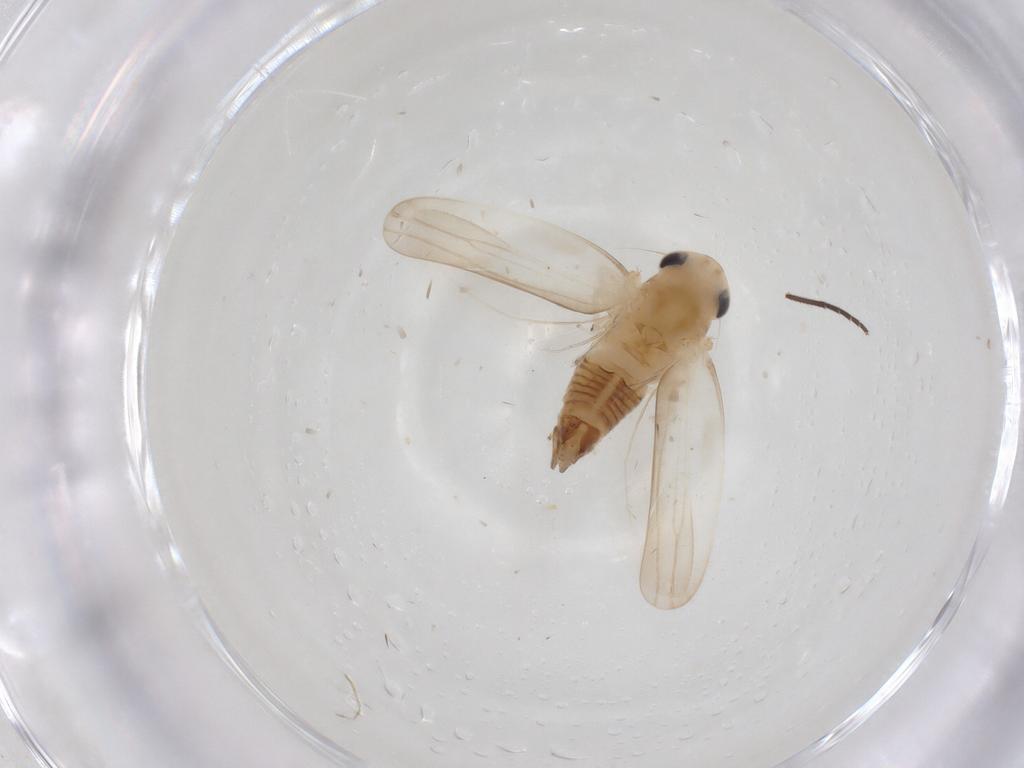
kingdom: Animalia
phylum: Arthropoda
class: Insecta
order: Hemiptera
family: Cicadellidae
